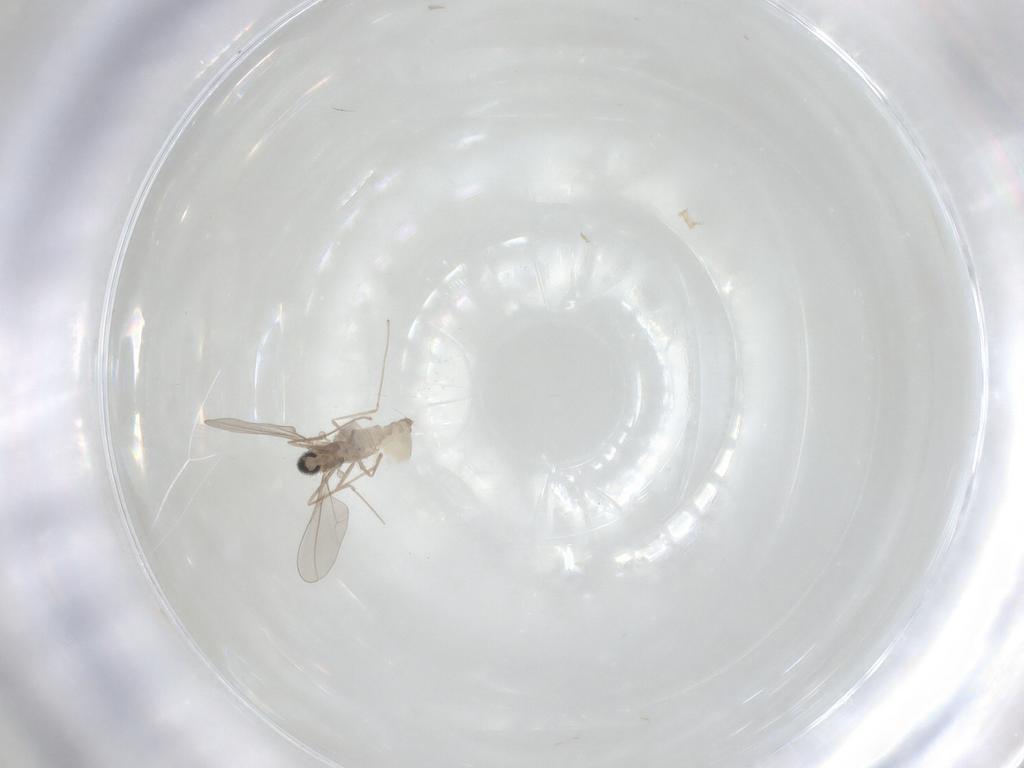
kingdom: Animalia
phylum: Arthropoda
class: Insecta
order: Diptera
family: Cecidomyiidae
